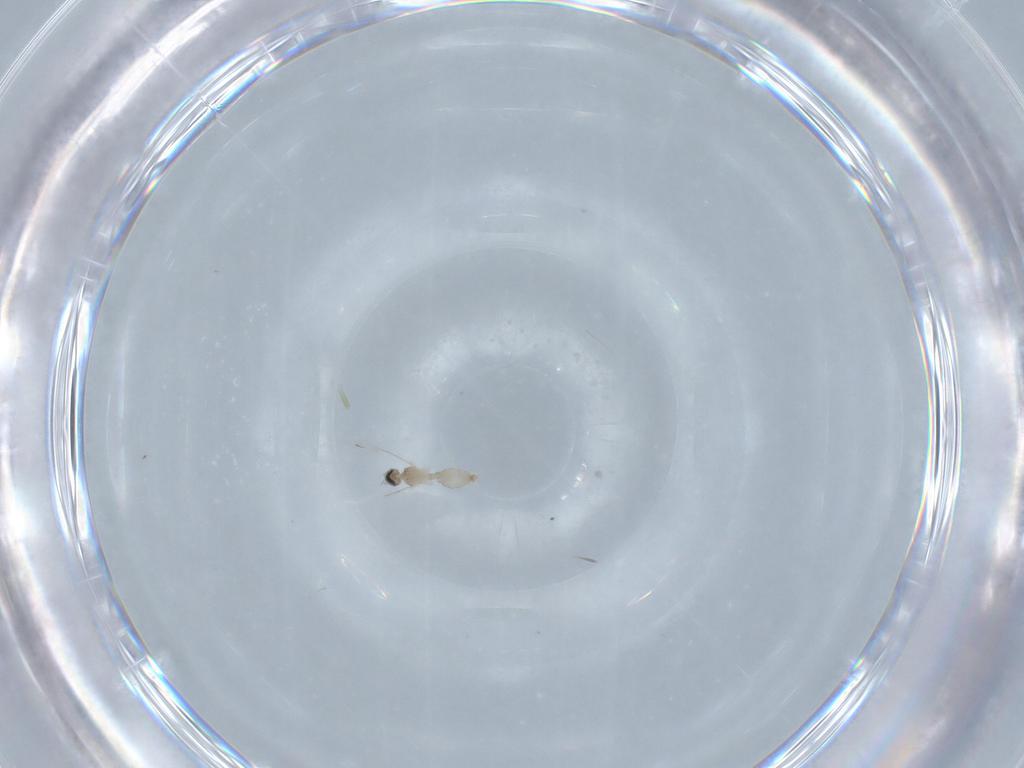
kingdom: Animalia
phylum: Arthropoda
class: Insecta
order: Diptera
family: Cecidomyiidae
